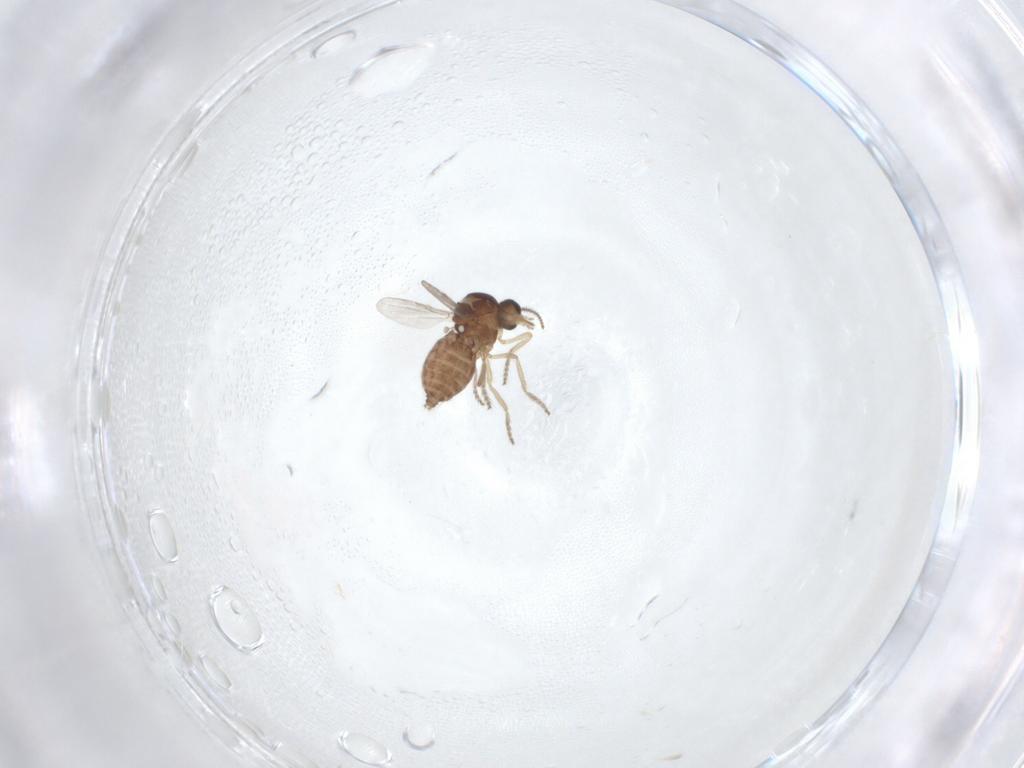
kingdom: Animalia
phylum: Arthropoda
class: Insecta
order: Diptera
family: Ceratopogonidae
